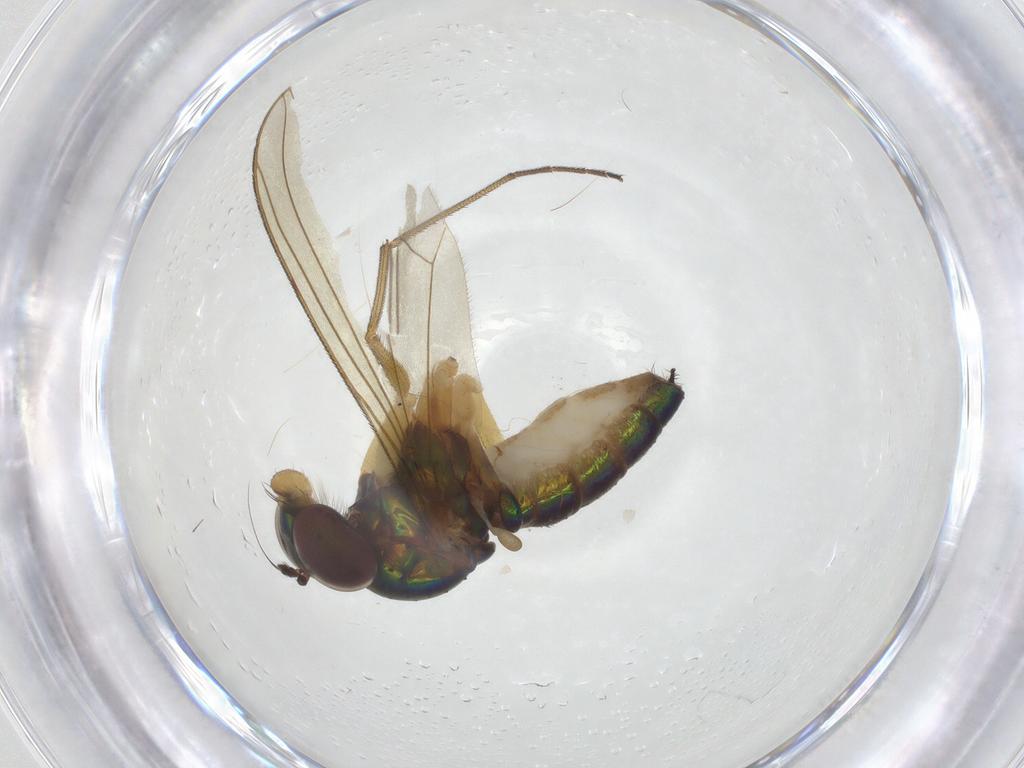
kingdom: Animalia
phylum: Arthropoda
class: Insecta
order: Diptera
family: Dolichopodidae
